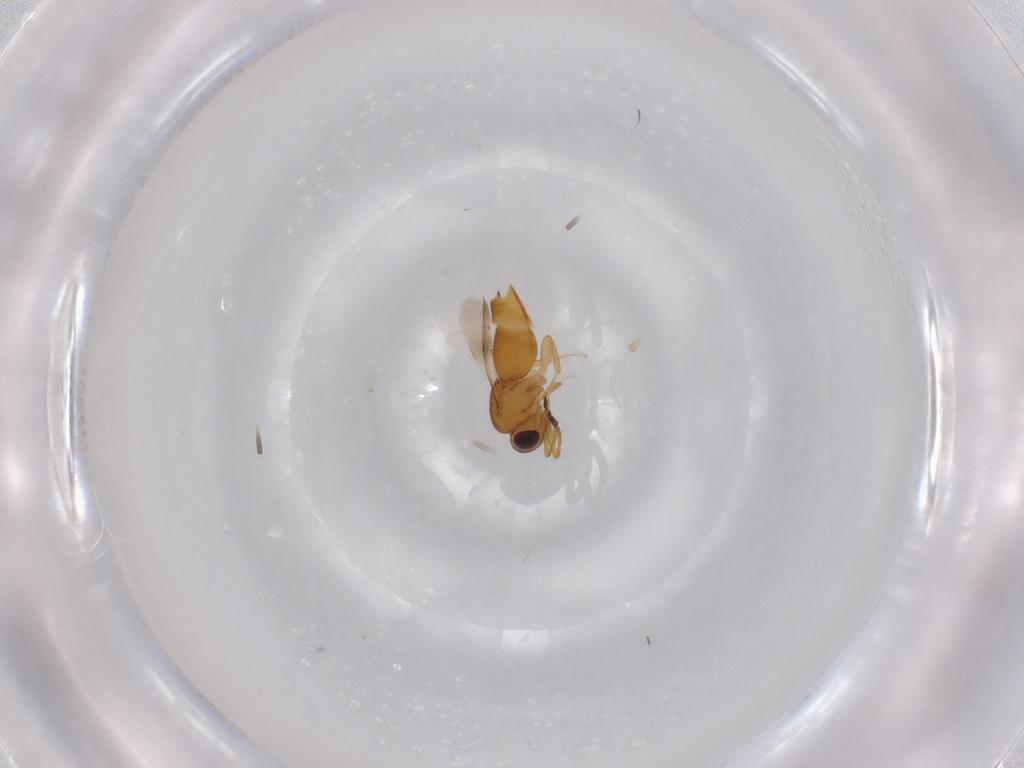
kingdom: Animalia
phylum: Arthropoda
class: Insecta
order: Hymenoptera
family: Ceraphronidae
